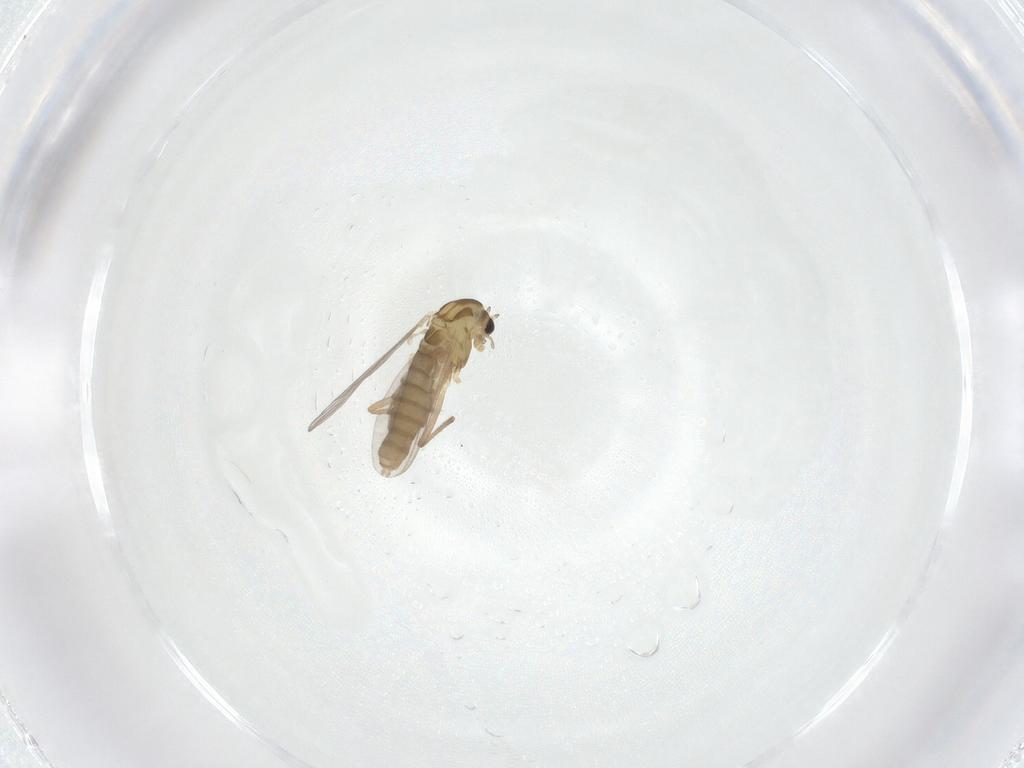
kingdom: Animalia
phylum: Arthropoda
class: Insecta
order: Diptera
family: Chironomidae
